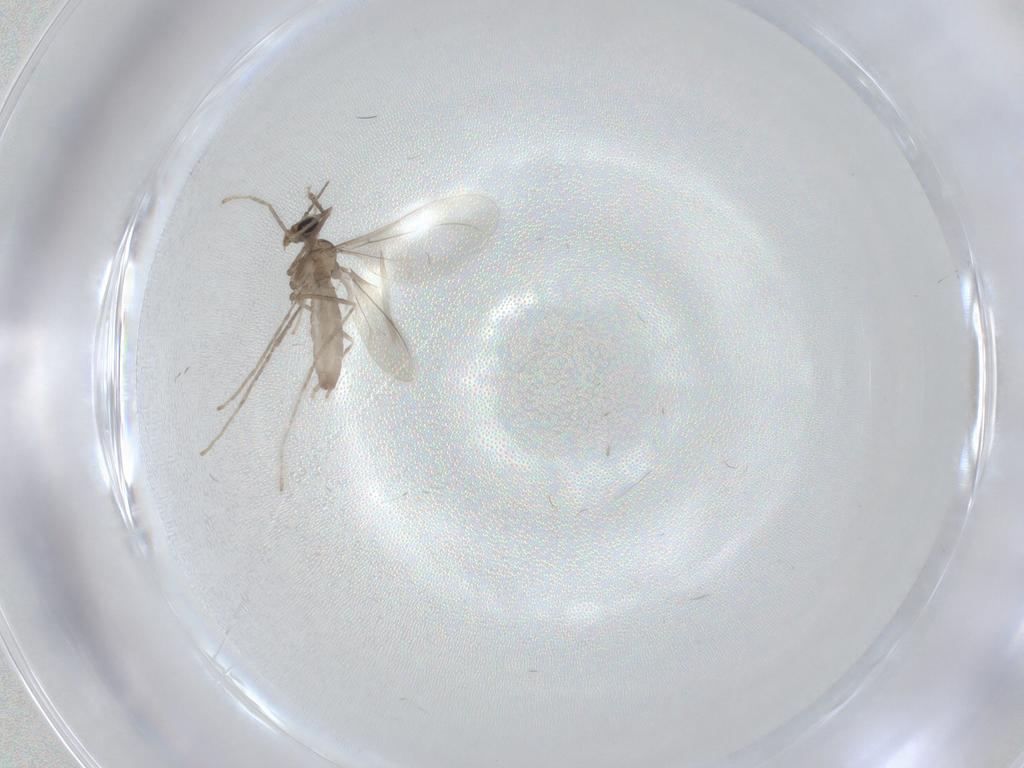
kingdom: Animalia
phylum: Arthropoda
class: Insecta
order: Diptera
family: Cecidomyiidae
